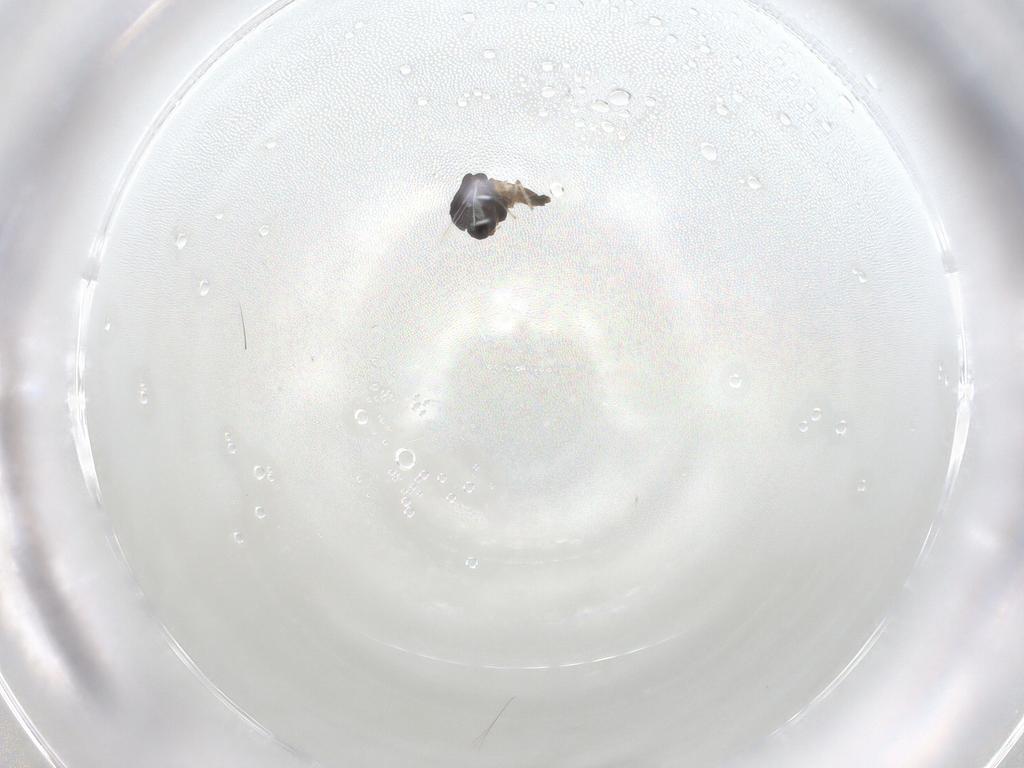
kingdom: Animalia
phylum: Arthropoda
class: Insecta
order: Diptera
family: Chironomidae
